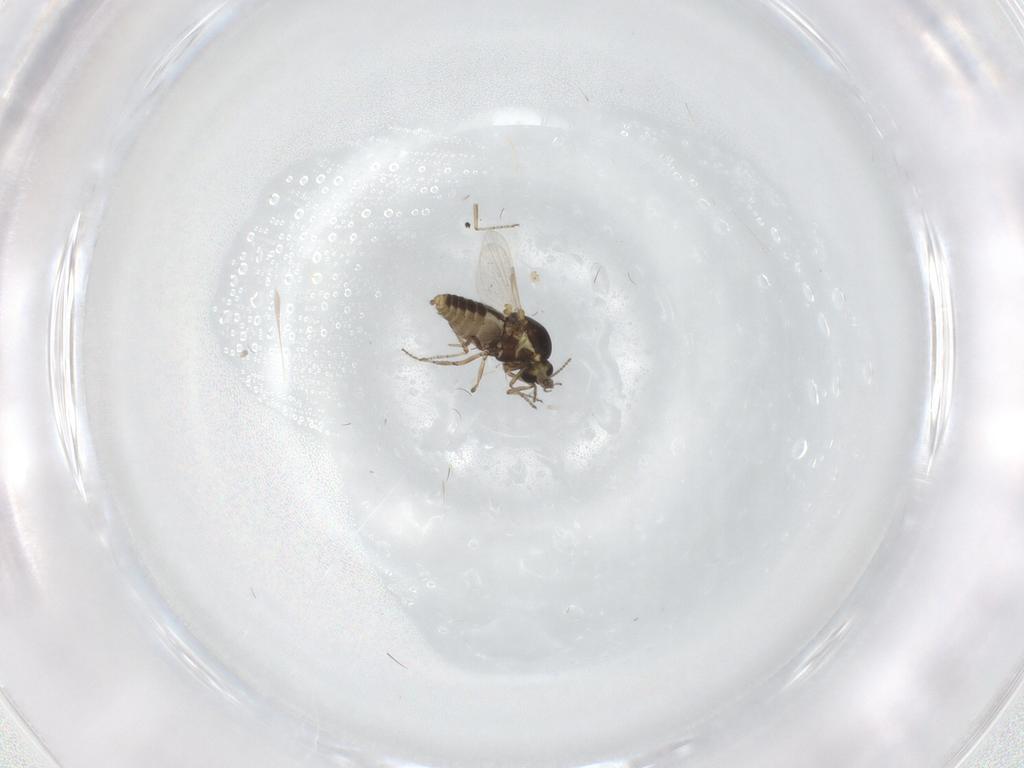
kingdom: Animalia
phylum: Arthropoda
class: Insecta
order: Diptera
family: Ceratopogonidae
